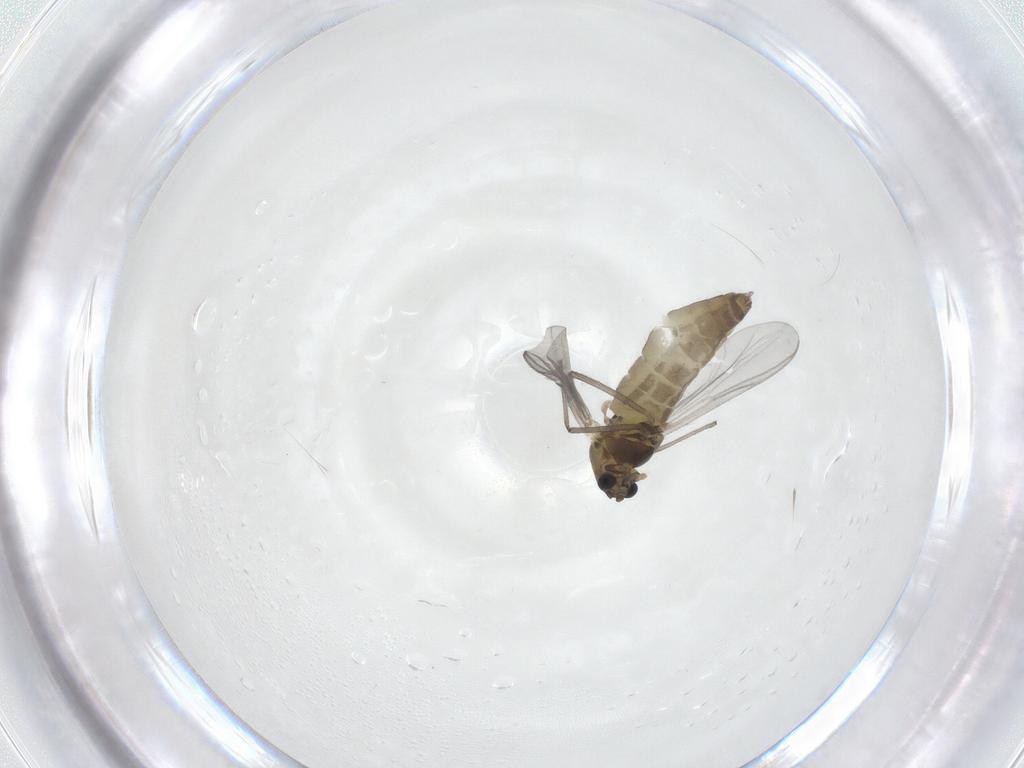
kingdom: Animalia
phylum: Arthropoda
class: Insecta
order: Diptera
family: Chironomidae
